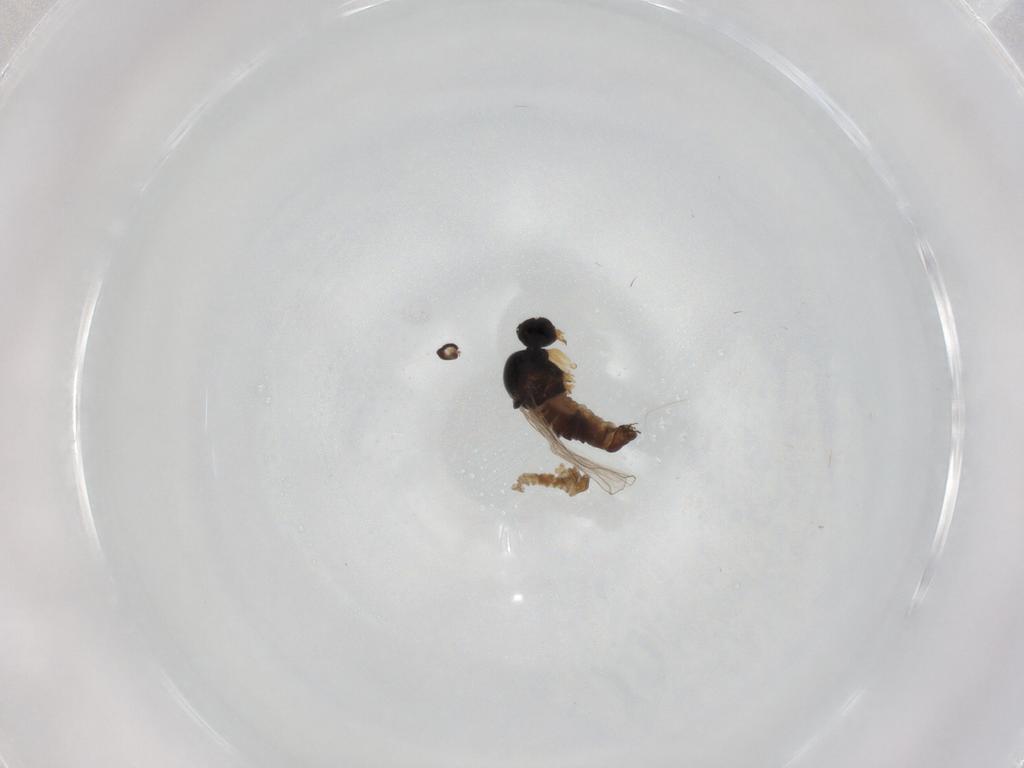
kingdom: Animalia
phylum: Arthropoda
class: Insecta
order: Diptera
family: Hybotidae
